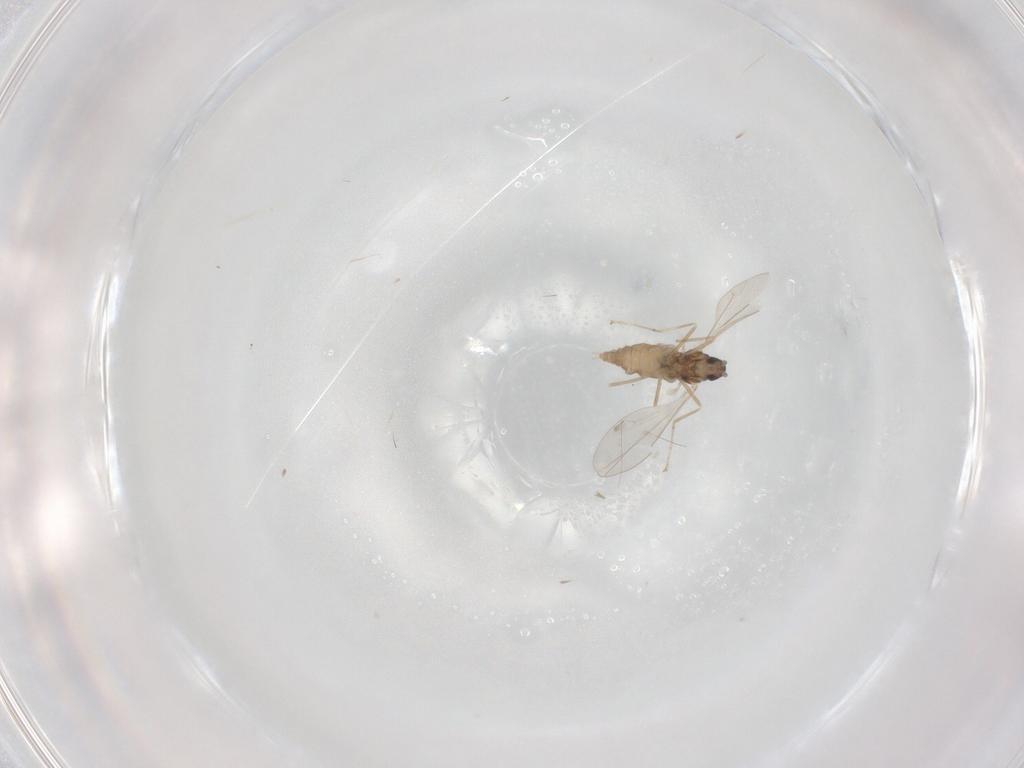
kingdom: Animalia
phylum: Arthropoda
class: Insecta
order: Diptera
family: Cecidomyiidae
